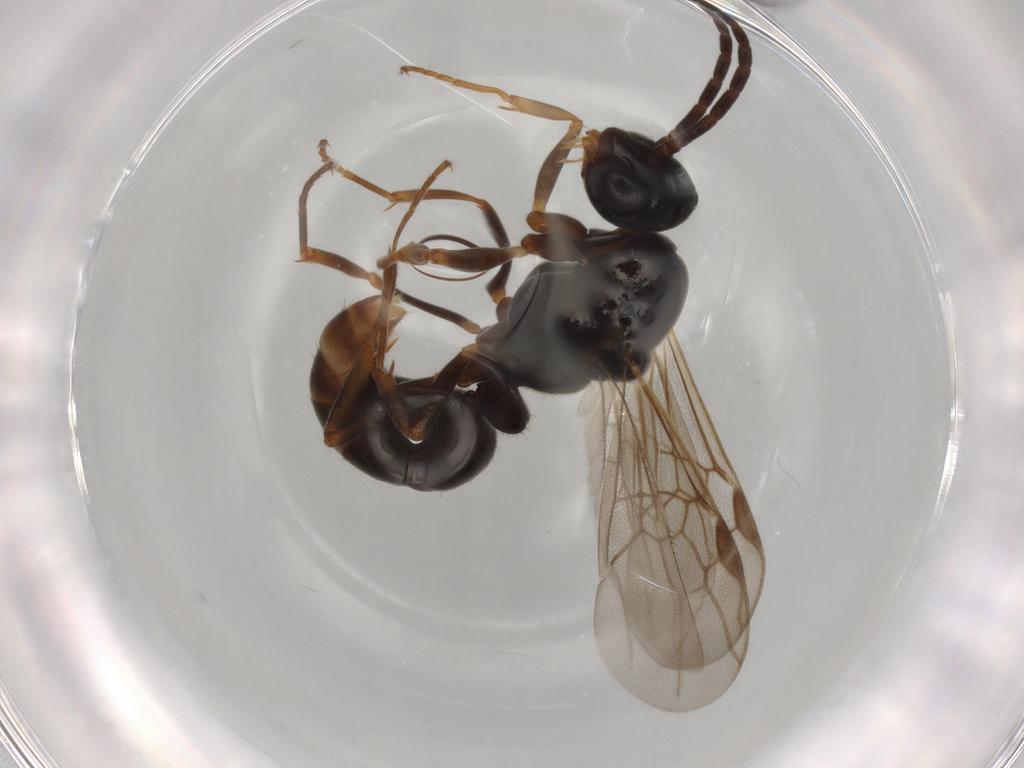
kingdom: Animalia
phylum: Arthropoda
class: Insecta
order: Hymenoptera
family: Formicidae
